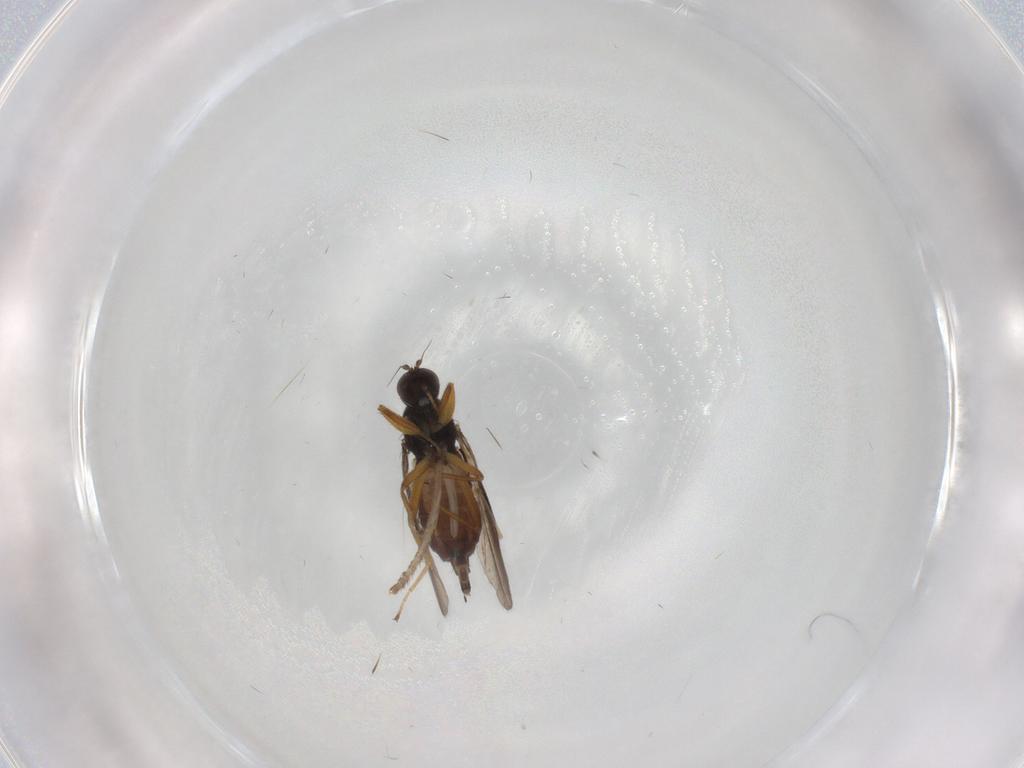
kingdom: Animalia
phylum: Arthropoda
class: Insecta
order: Diptera
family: Hybotidae
